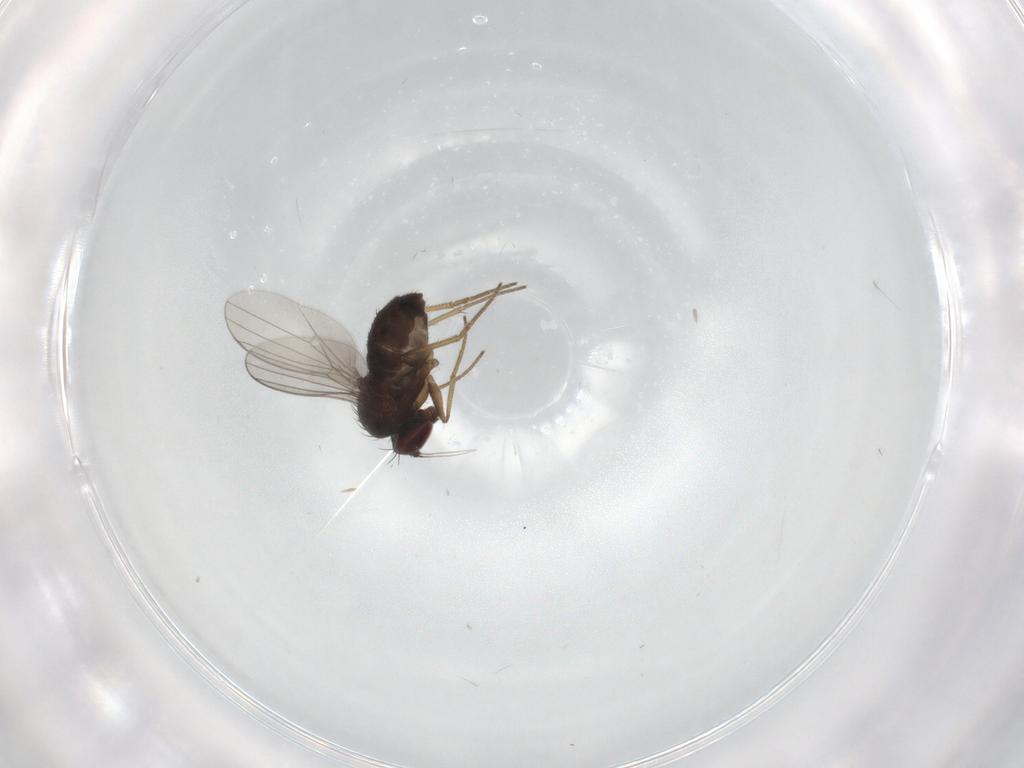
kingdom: Animalia
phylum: Arthropoda
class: Insecta
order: Diptera
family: Dolichopodidae
